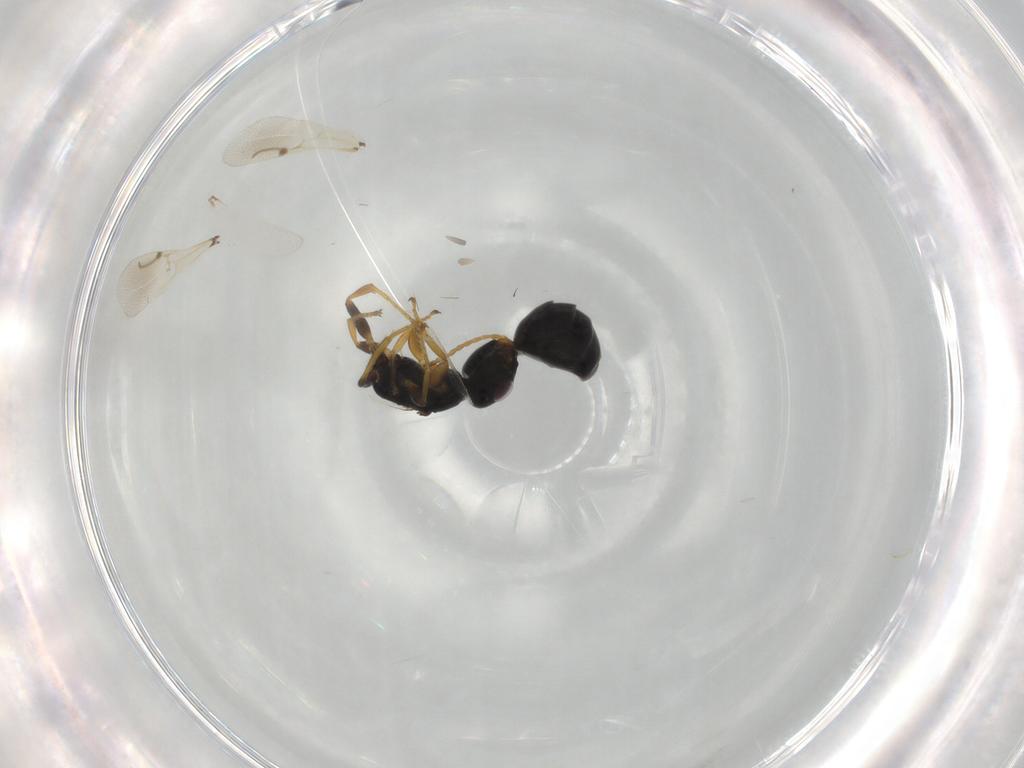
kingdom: Animalia
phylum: Arthropoda
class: Insecta
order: Hymenoptera
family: Bethylidae
